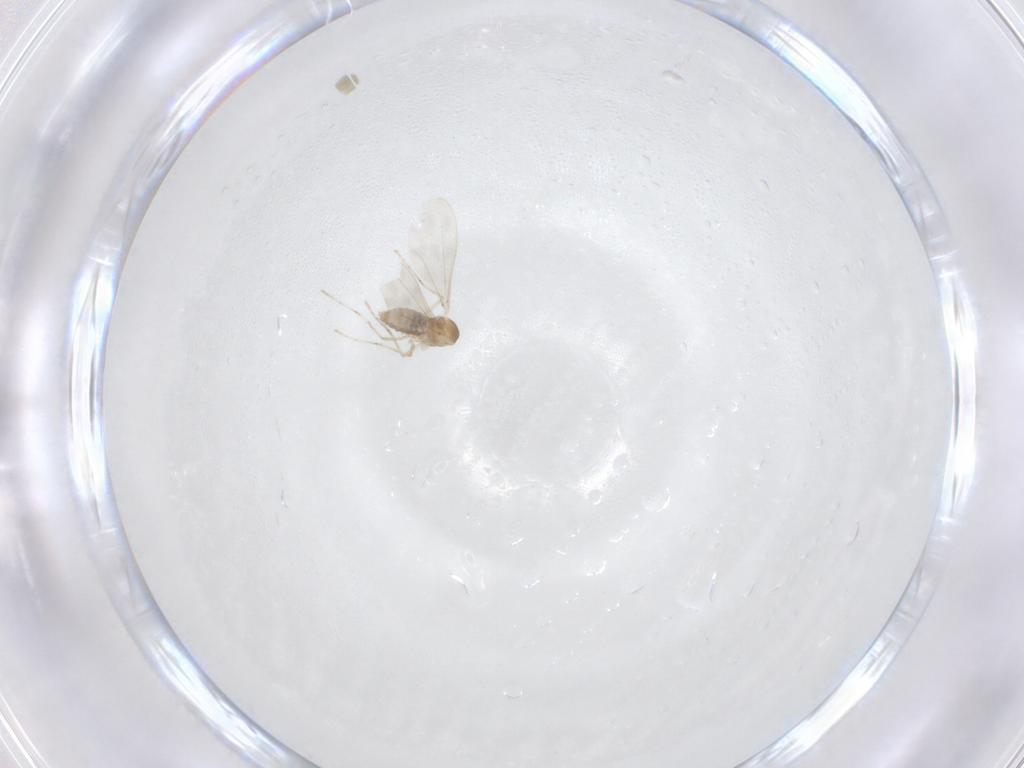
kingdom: Animalia
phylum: Arthropoda
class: Insecta
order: Diptera
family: Cecidomyiidae
